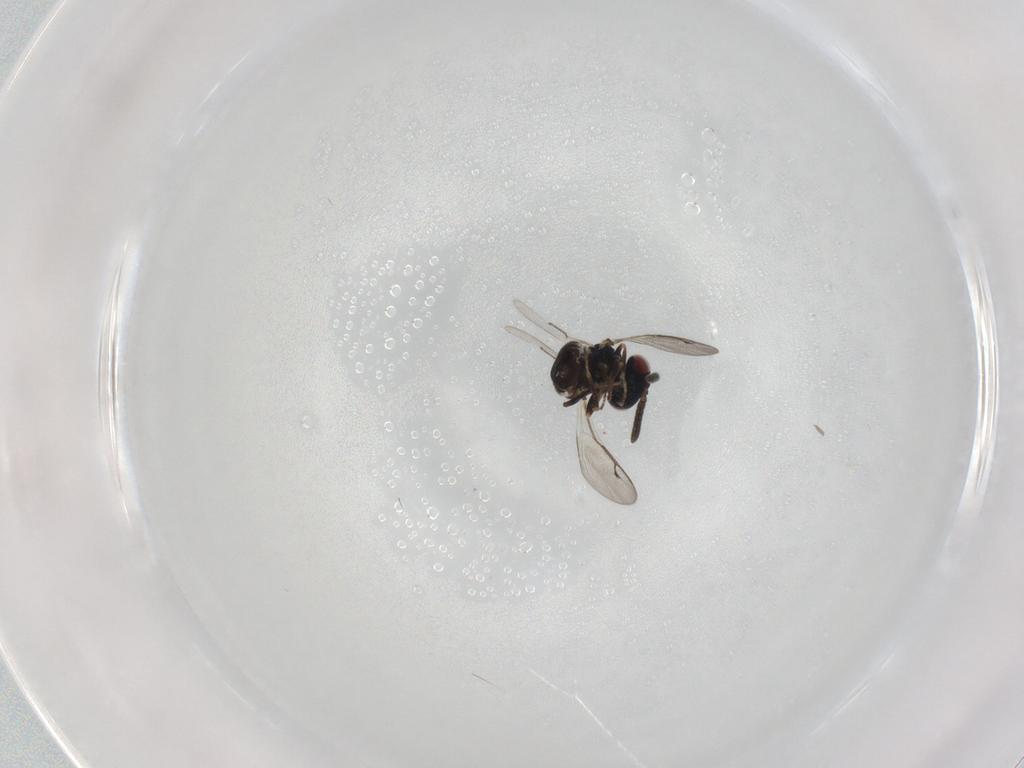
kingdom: Animalia
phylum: Arthropoda
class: Insecta
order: Hymenoptera
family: Pteromalidae
